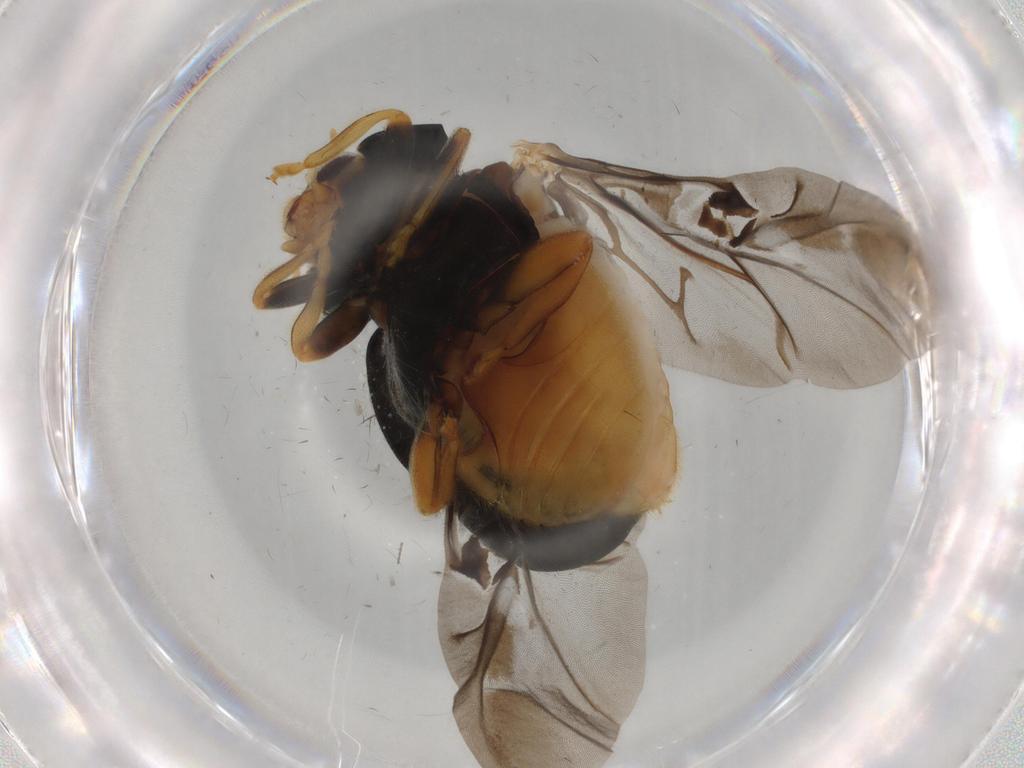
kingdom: Animalia
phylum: Arthropoda
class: Insecta
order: Coleoptera
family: Coccinellidae
